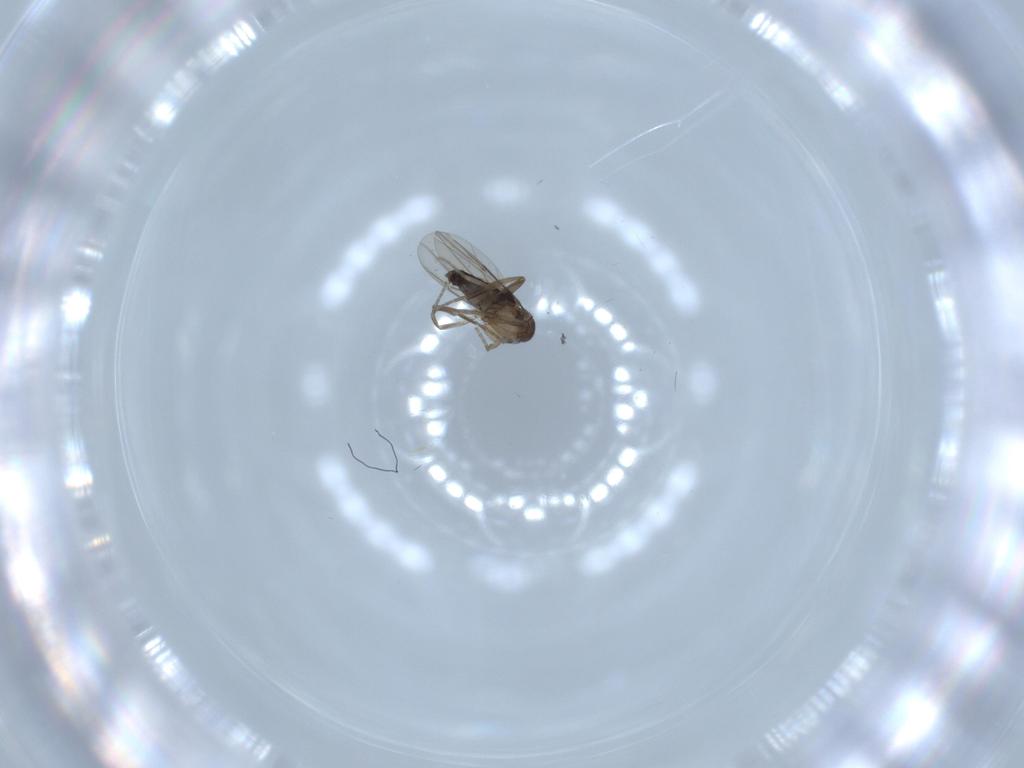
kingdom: Animalia
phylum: Arthropoda
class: Insecta
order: Diptera
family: Phoridae
